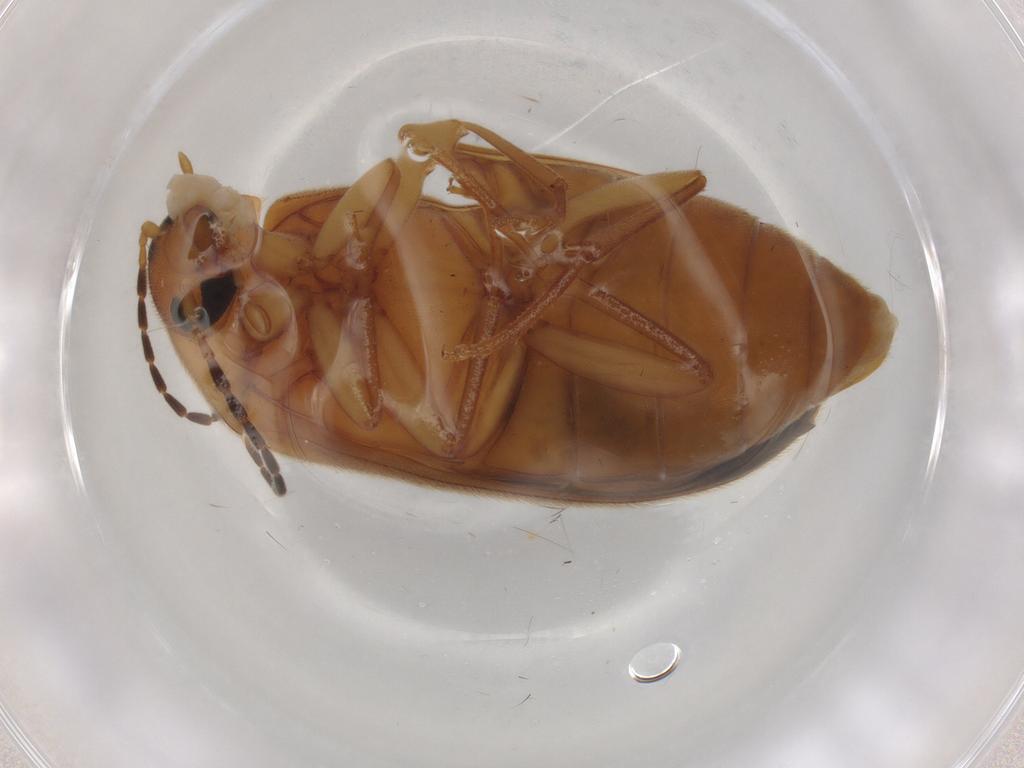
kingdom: Animalia
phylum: Arthropoda
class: Insecta
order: Coleoptera
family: Scraptiidae
